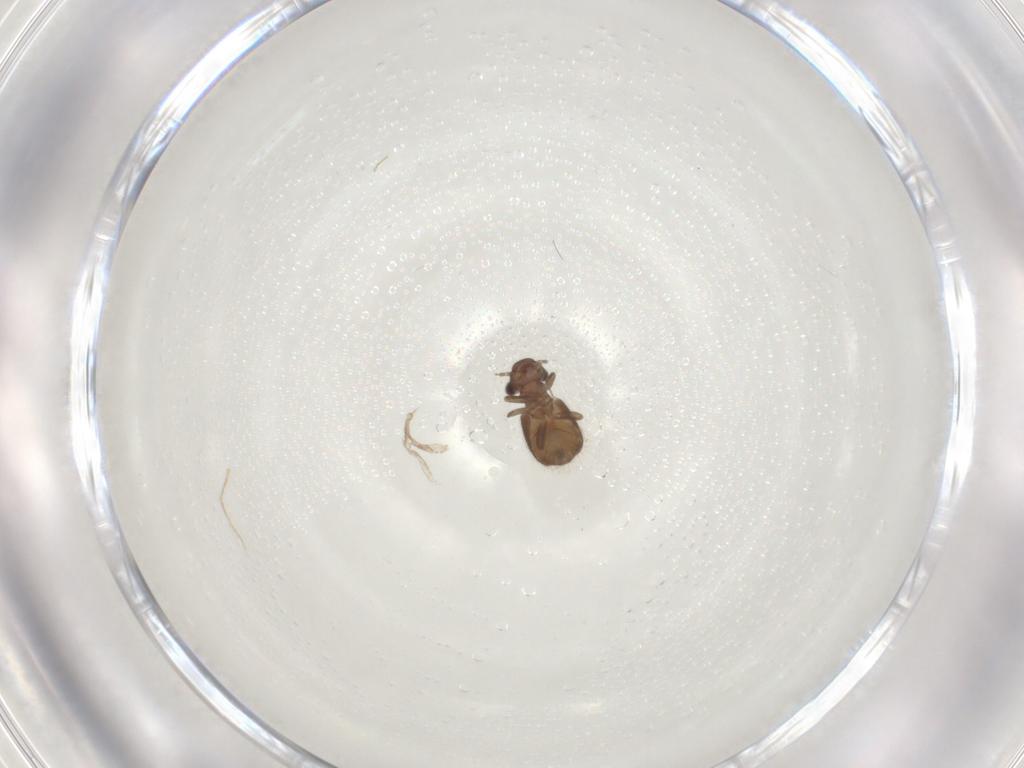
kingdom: Animalia
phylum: Arthropoda
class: Insecta
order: Psocodea
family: Trogiidae
